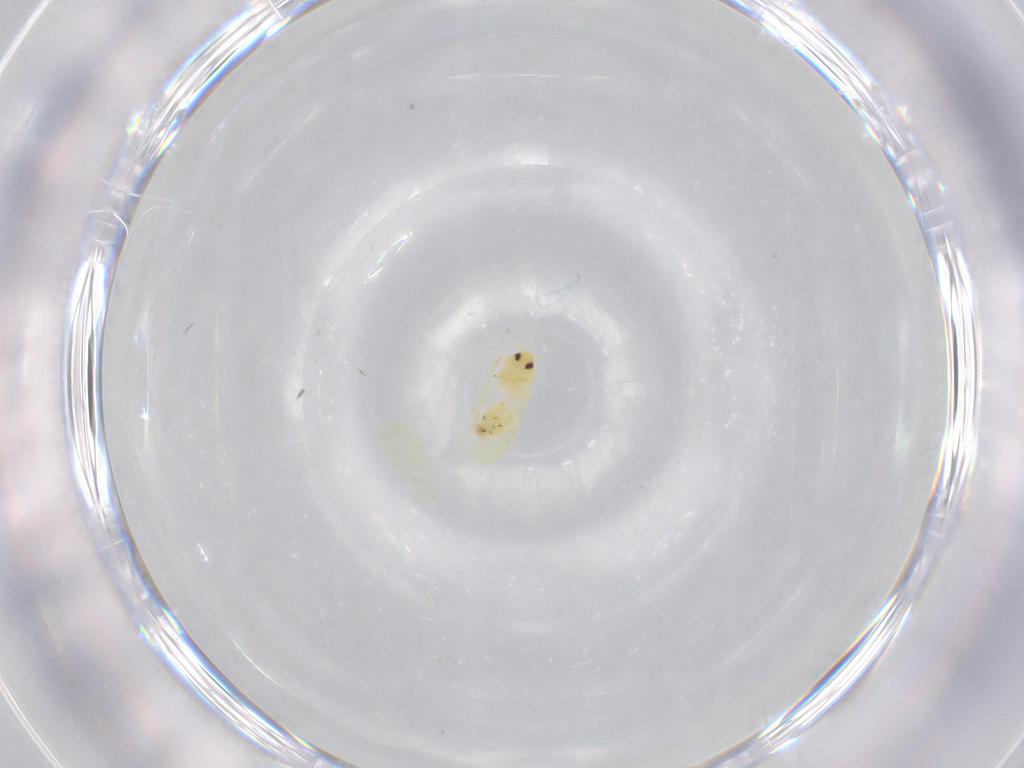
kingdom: Animalia
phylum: Arthropoda
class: Insecta
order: Hemiptera
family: Aleyrodidae
